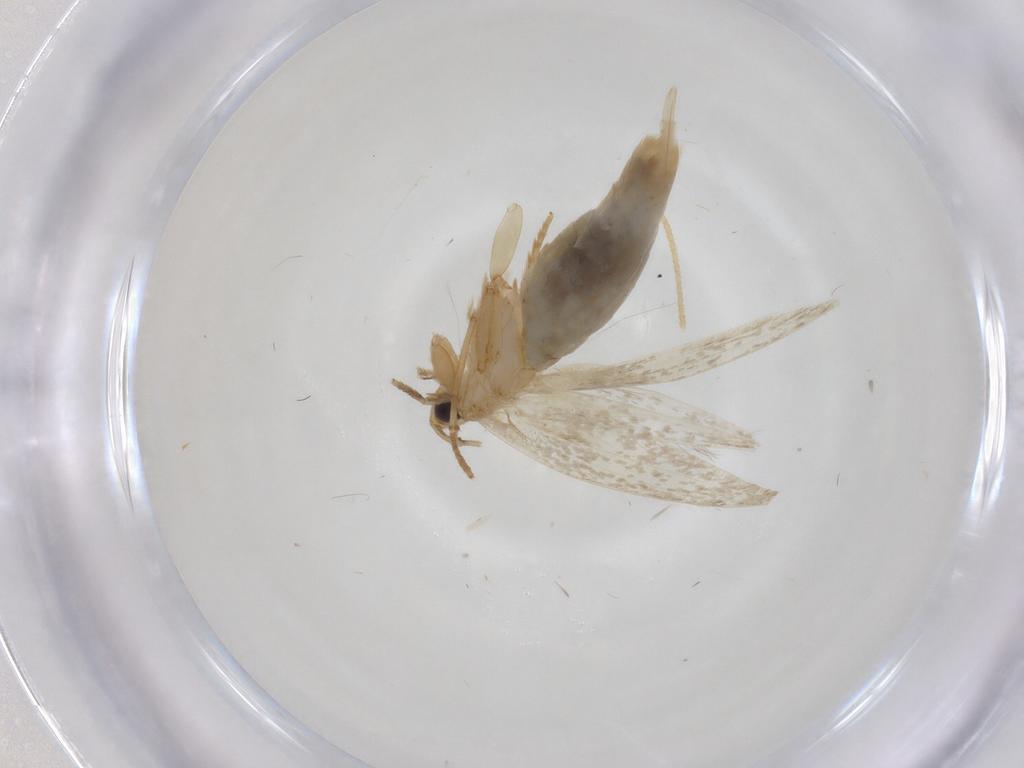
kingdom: Animalia
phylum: Arthropoda
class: Insecta
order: Lepidoptera
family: Tineidae
